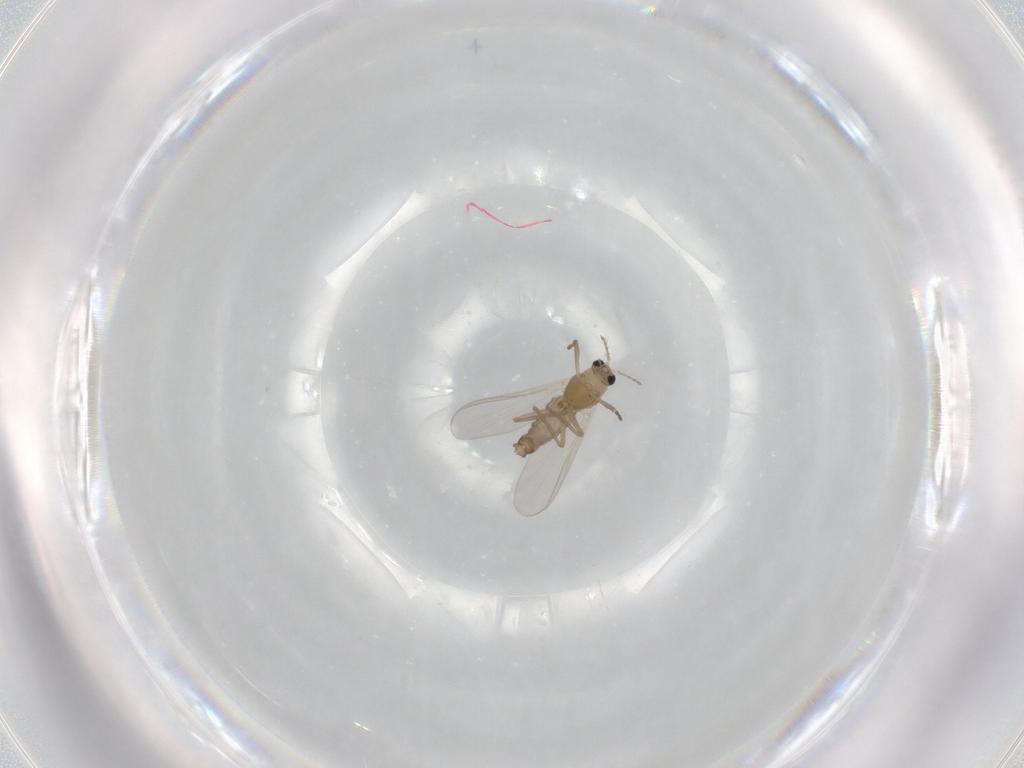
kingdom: Animalia
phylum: Arthropoda
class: Insecta
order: Diptera
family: Chironomidae
